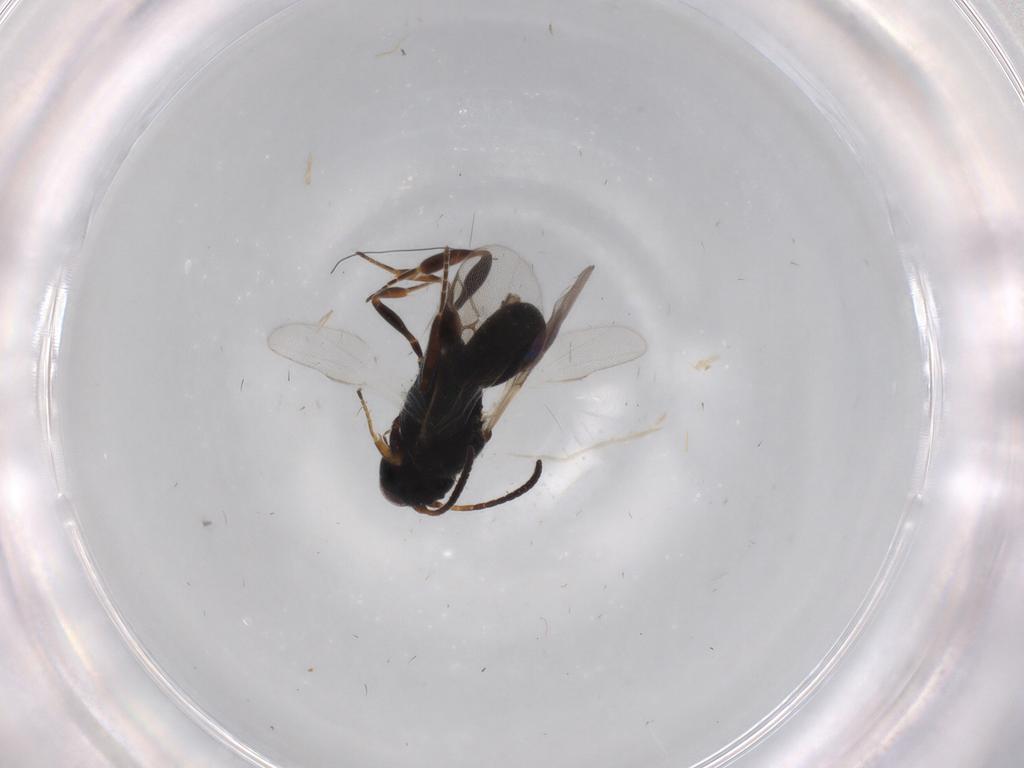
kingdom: Animalia
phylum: Arthropoda
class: Insecta
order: Hymenoptera
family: Braconidae
